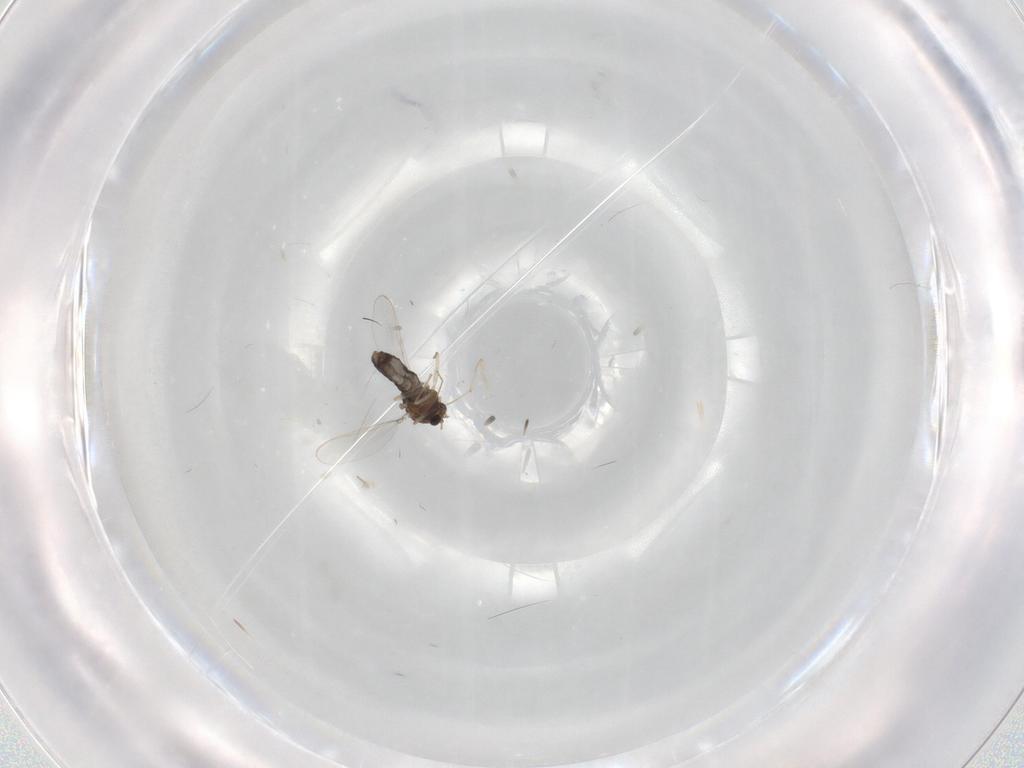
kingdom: Animalia
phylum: Arthropoda
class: Insecta
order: Diptera
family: Chironomidae
